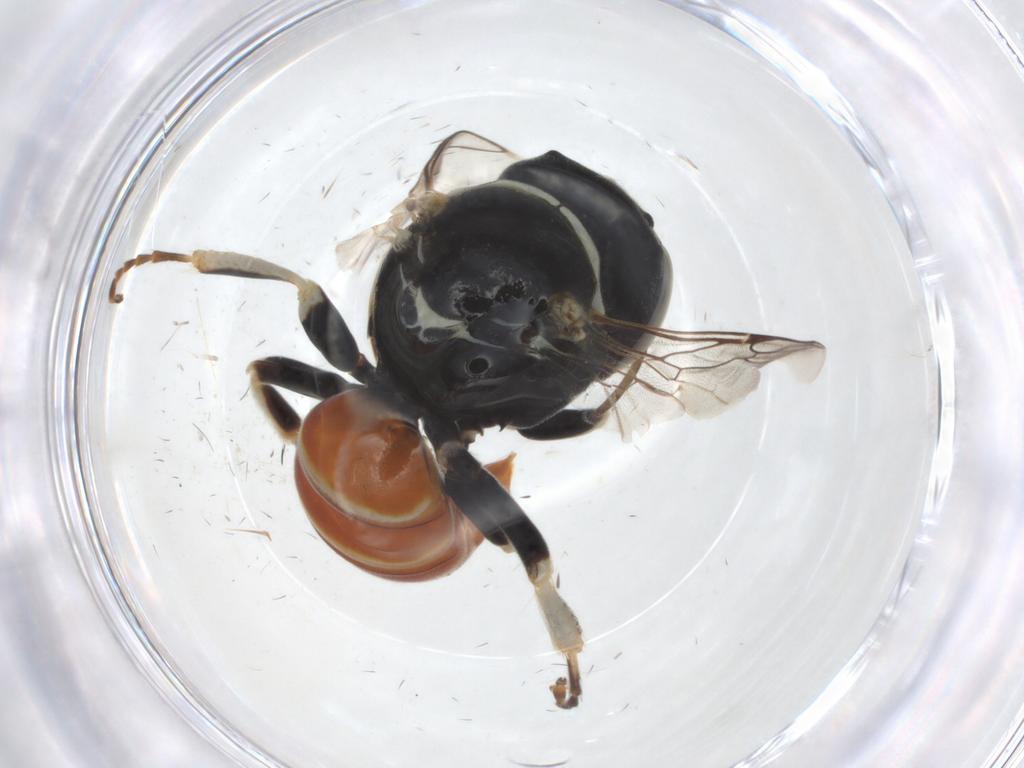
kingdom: Animalia
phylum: Arthropoda
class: Insecta
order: Hymenoptera
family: Crabronidae
